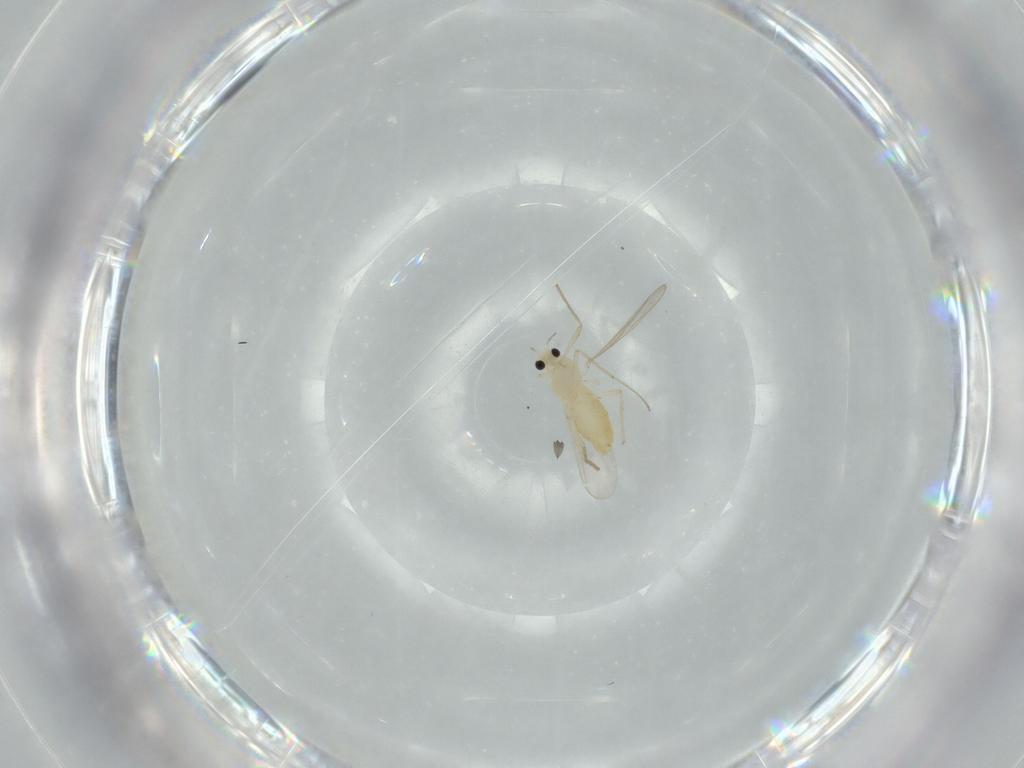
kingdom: Animalia
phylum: Arthropoda
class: Insecta
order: Diptera
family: Chironomidae
